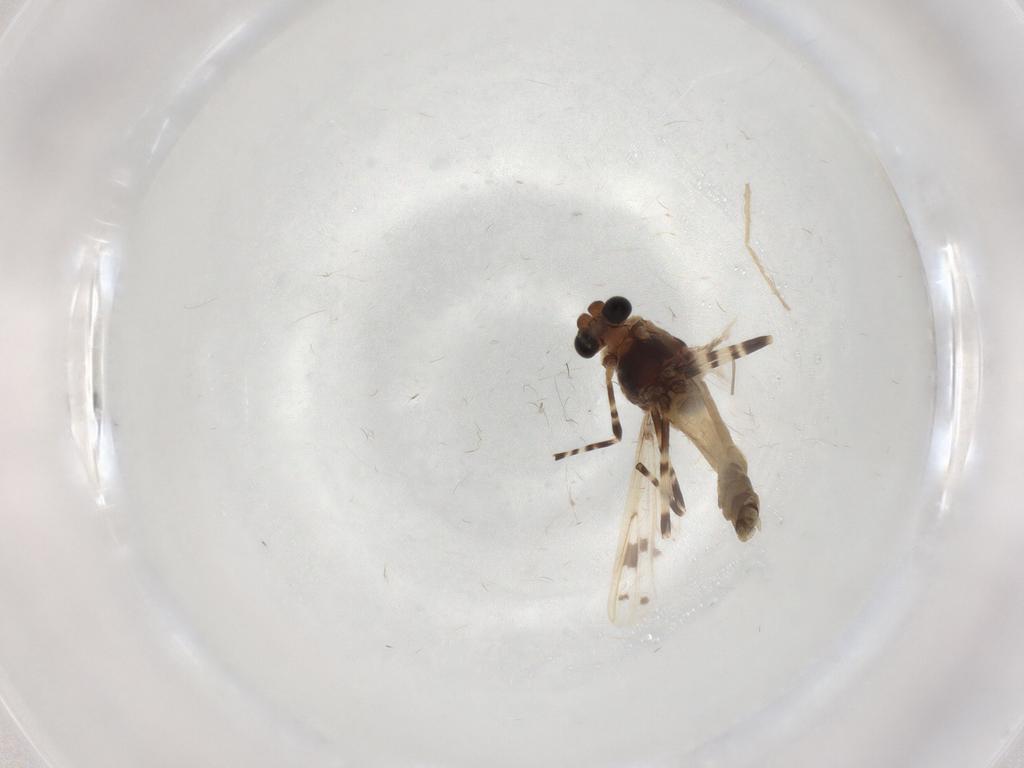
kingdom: Animalia
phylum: Arthropoda
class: Insecta
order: Diptera
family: Chironomidae
